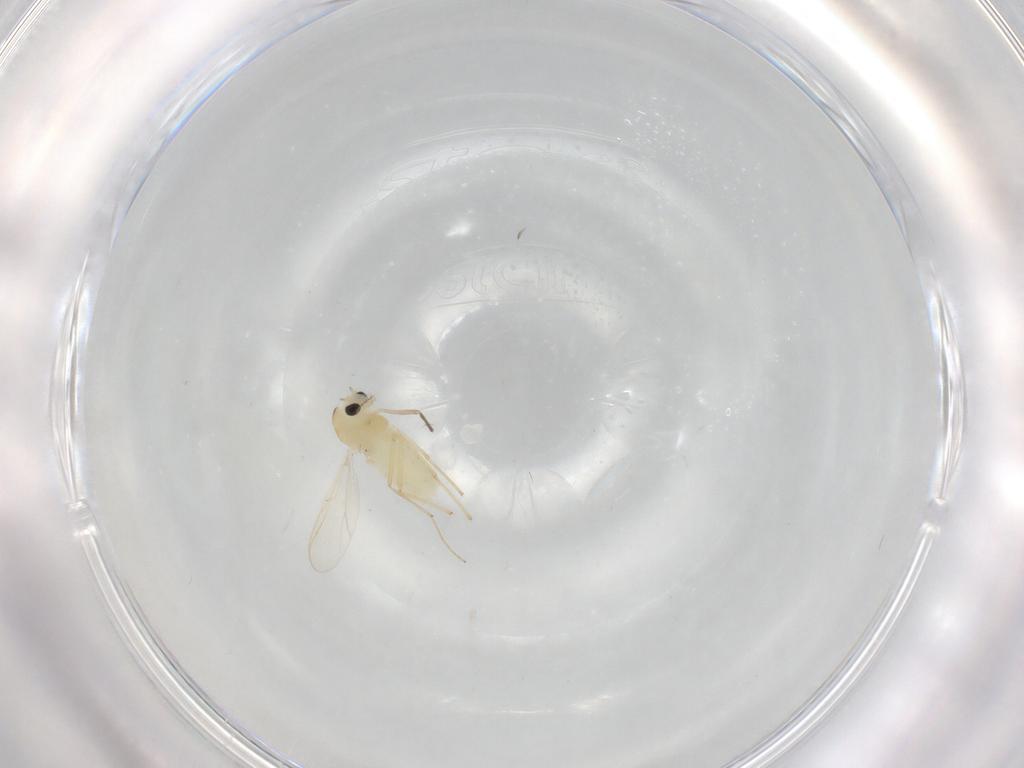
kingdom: Animalia
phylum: Arthropoda
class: Insecta
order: Diptera
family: Chironomidae
